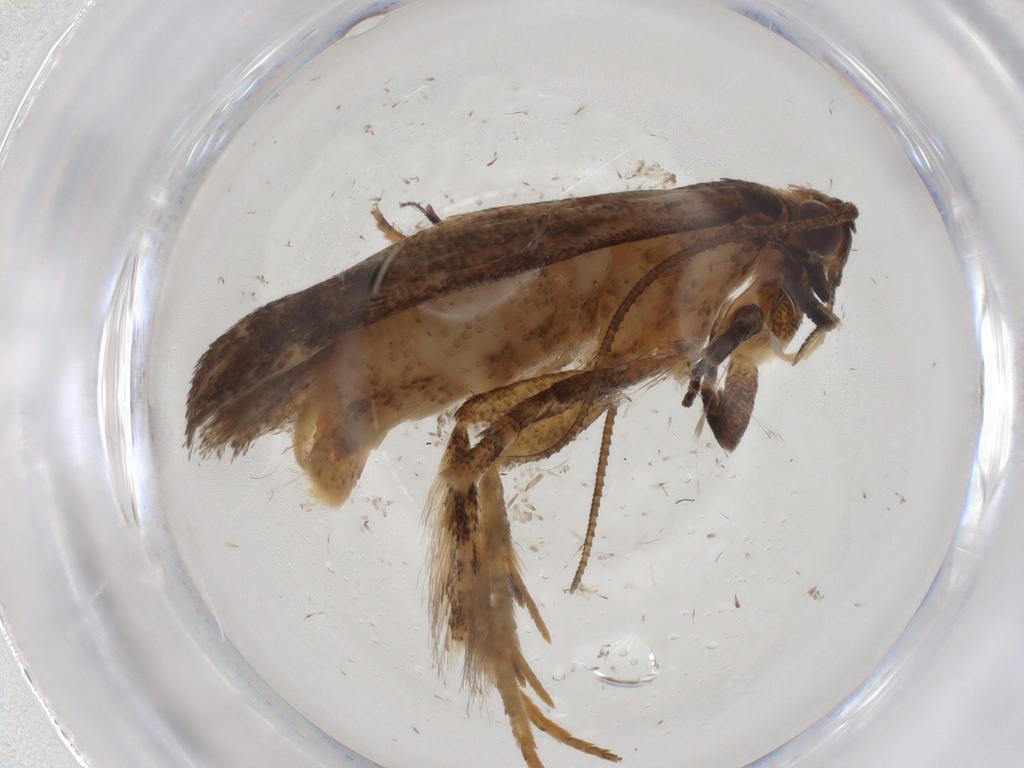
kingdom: Animalia
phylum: Arthropoda
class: Insecta
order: Lepidoptera
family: Gelechiidae
